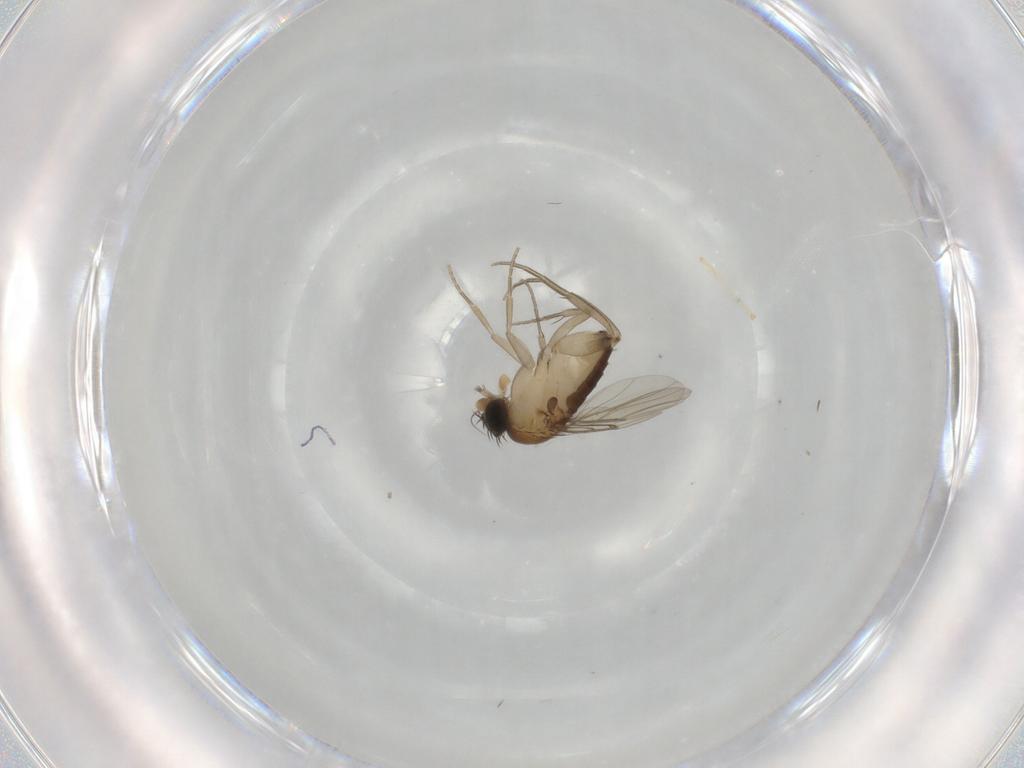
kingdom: Animalia
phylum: Arthropoda
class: Insecta
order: Diptera
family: Phoridae
